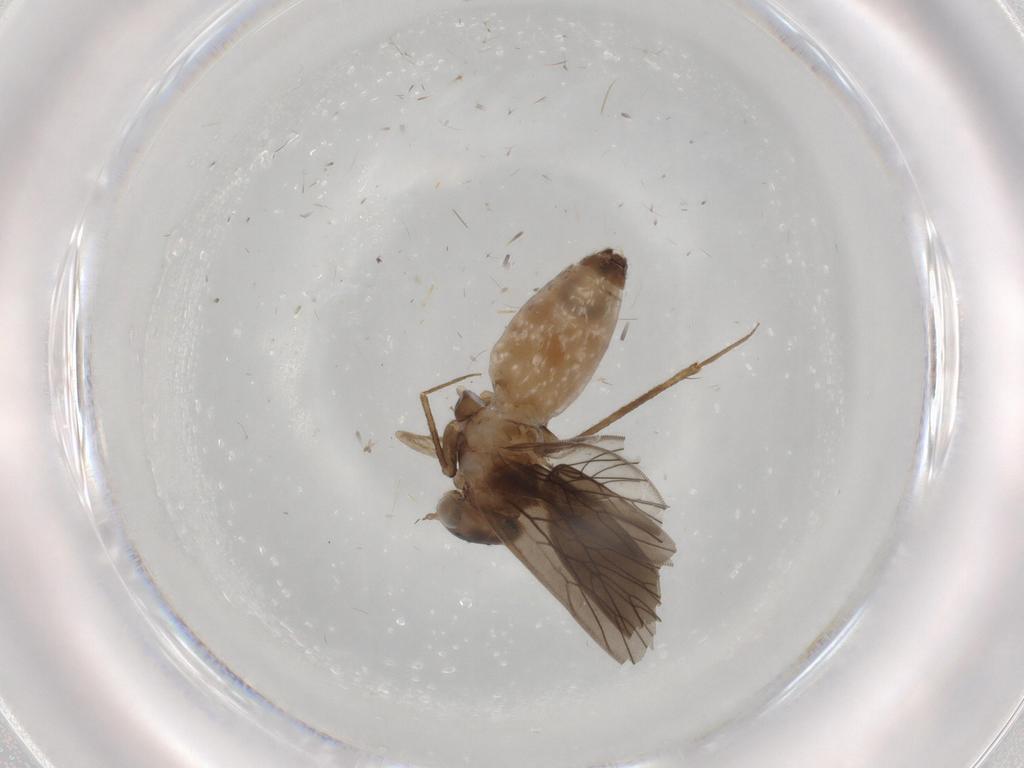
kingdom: Animalia
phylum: Arthropoda
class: Insecta
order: Psocodea
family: Lepidopsocidae
